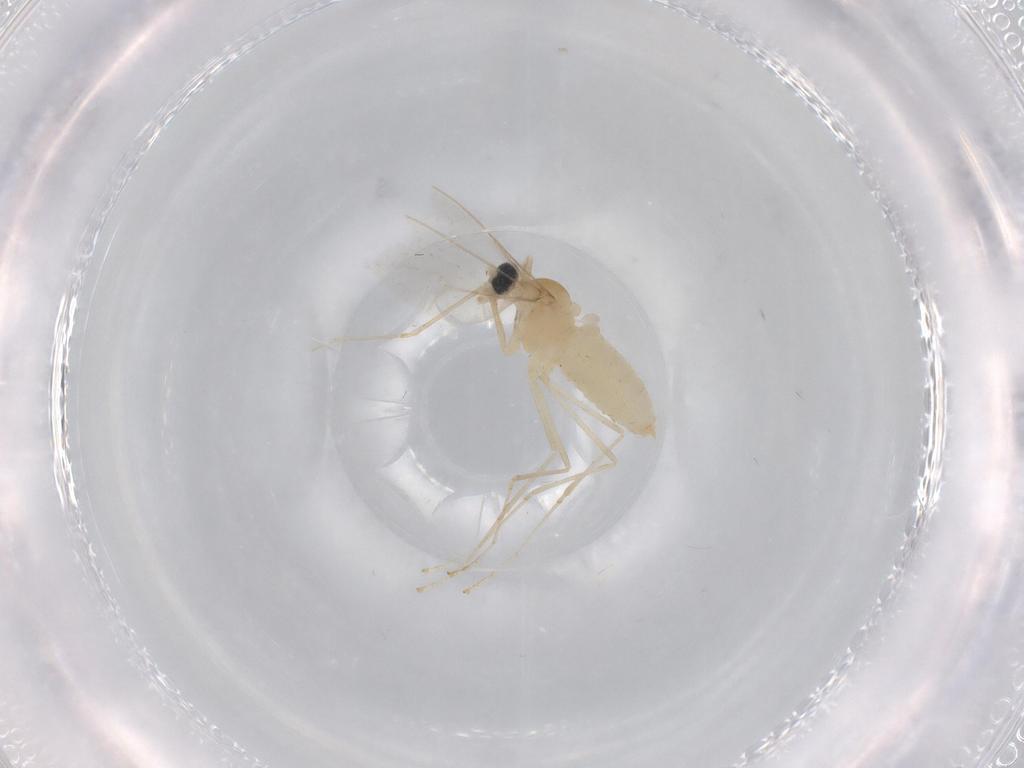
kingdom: Animalia
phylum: Arthropoda
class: Insecta
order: Diptera
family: Cecidomyiidae
